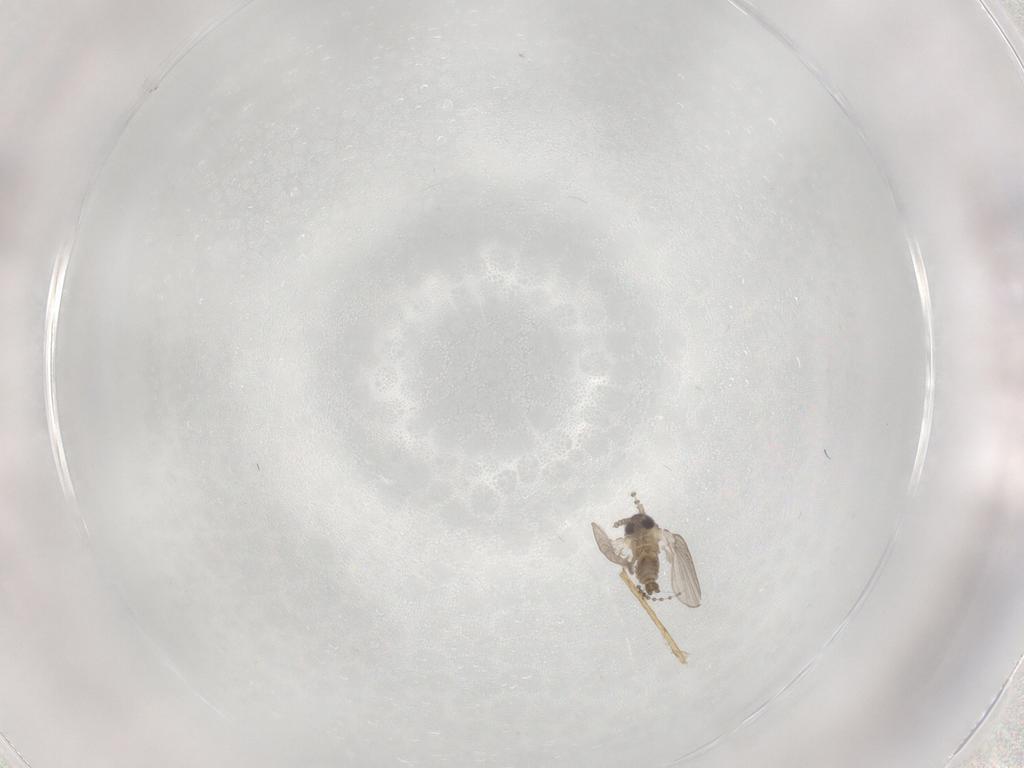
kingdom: Animalia
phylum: Arthropoda
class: Insecta
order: Diptera
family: Psychodidae
